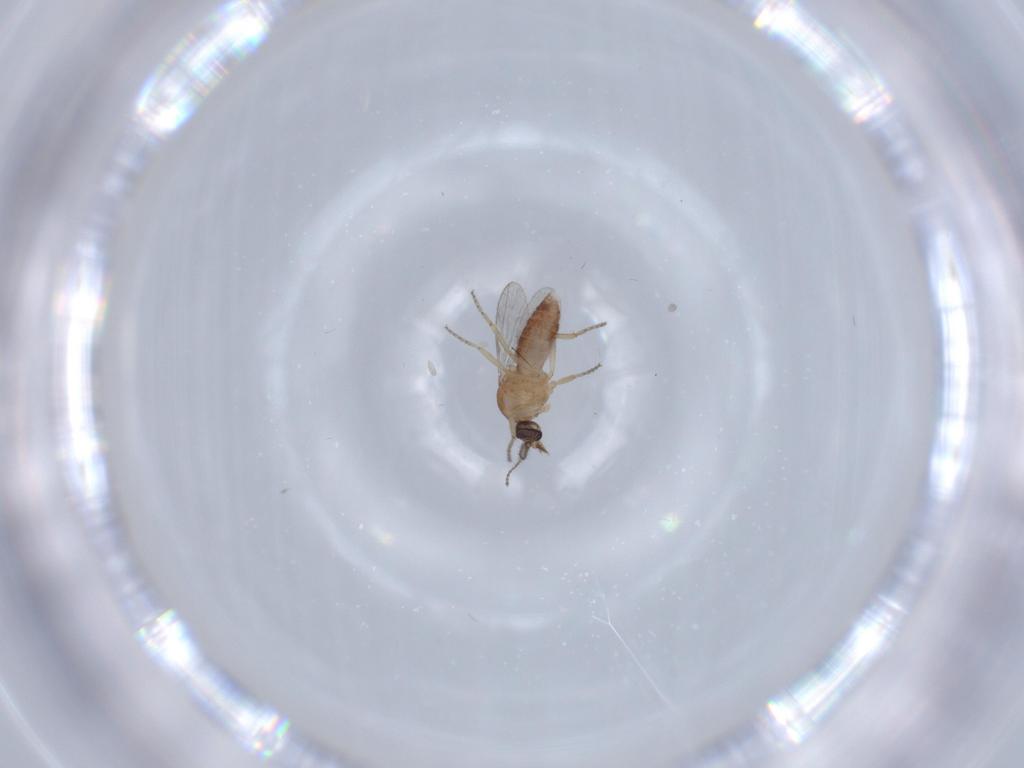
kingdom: Animalia
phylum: Arthropoda
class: Insecta
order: Diptera
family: Ceratopogonidae
